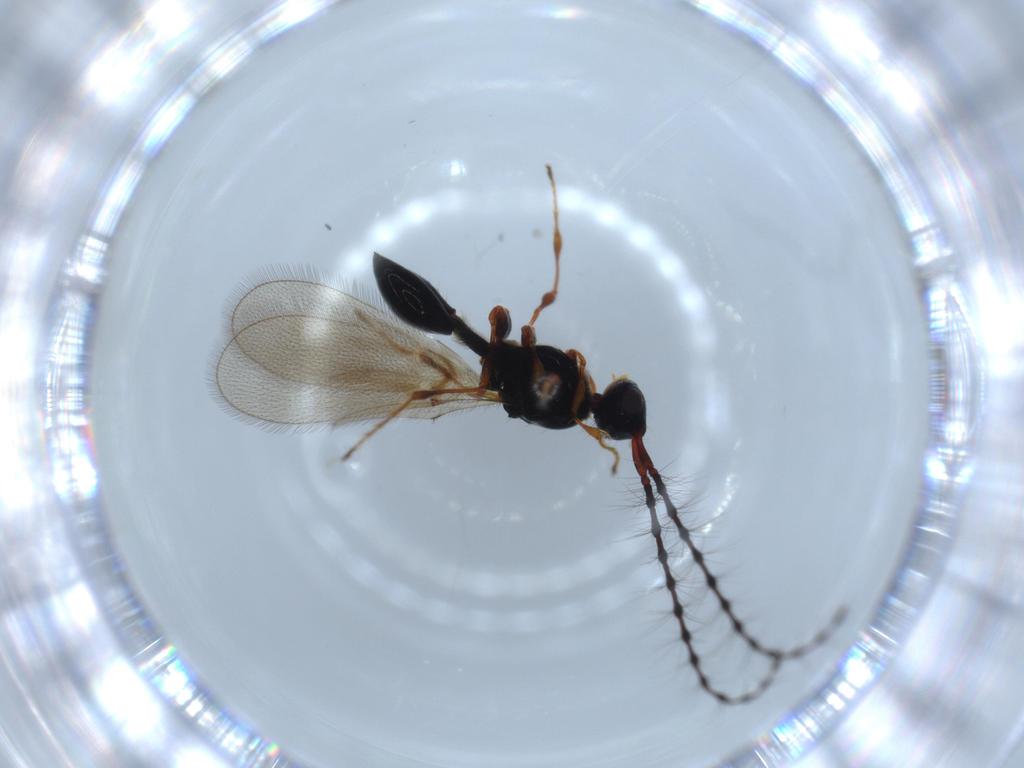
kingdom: Animalia
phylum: Arthropoda
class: Insecta
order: Hymenoptera
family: Diapriidae
